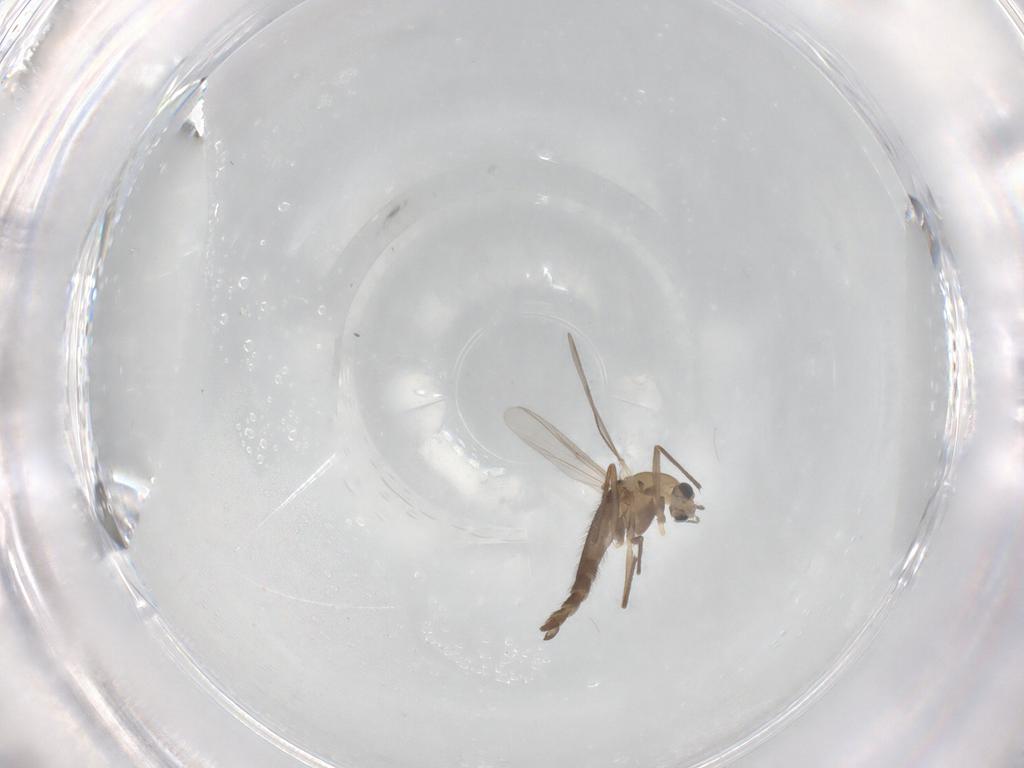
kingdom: Animalia
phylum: Arthropoda
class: Insecta
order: Diptera
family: Chironomidae
